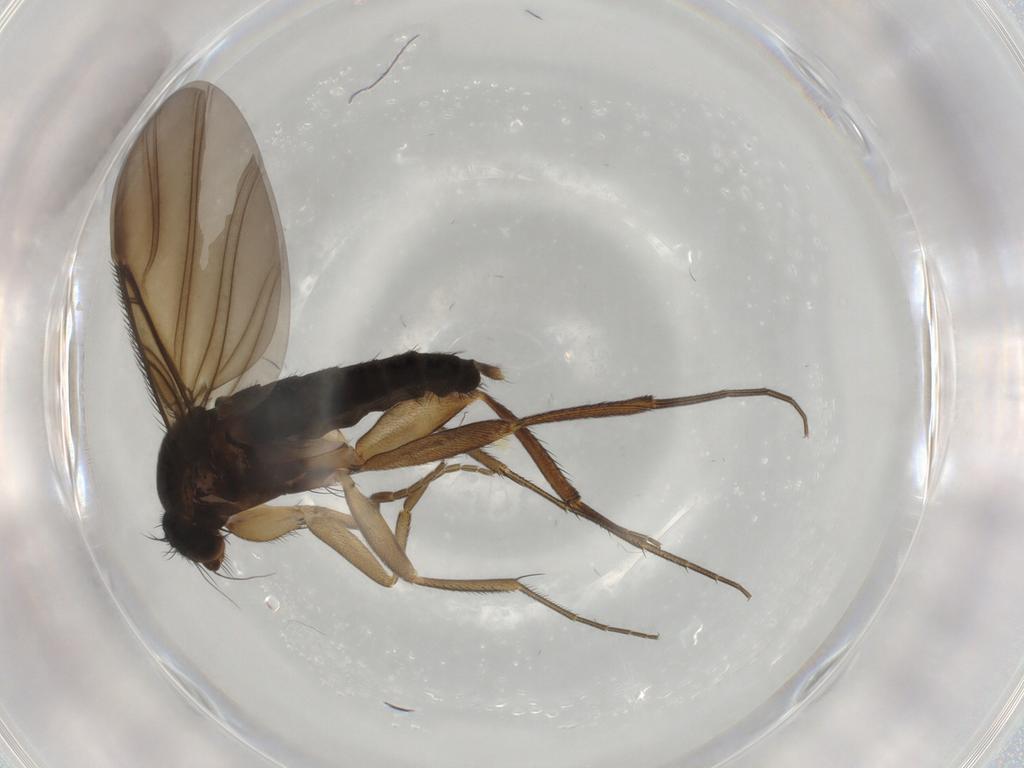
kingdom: Animalia
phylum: Arthropoda
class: Insecta
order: Diptera
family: Phoridae
